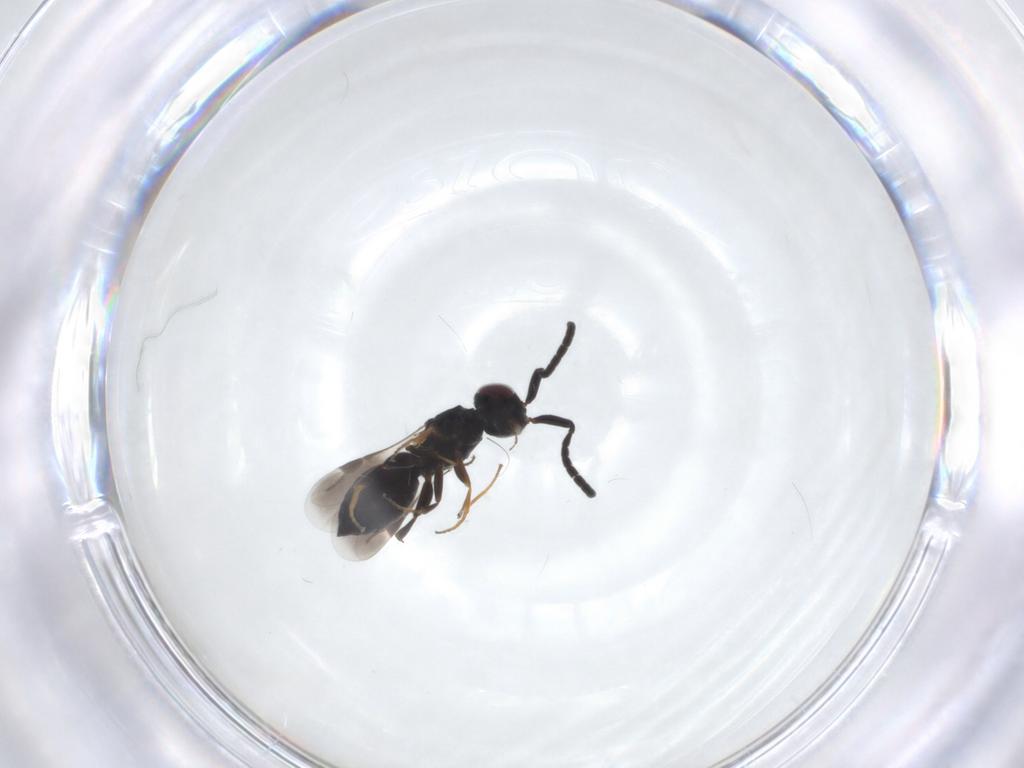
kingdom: Animalia
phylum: Arthropoda
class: Insecta
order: Hymenoptera
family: Megaspilidae
